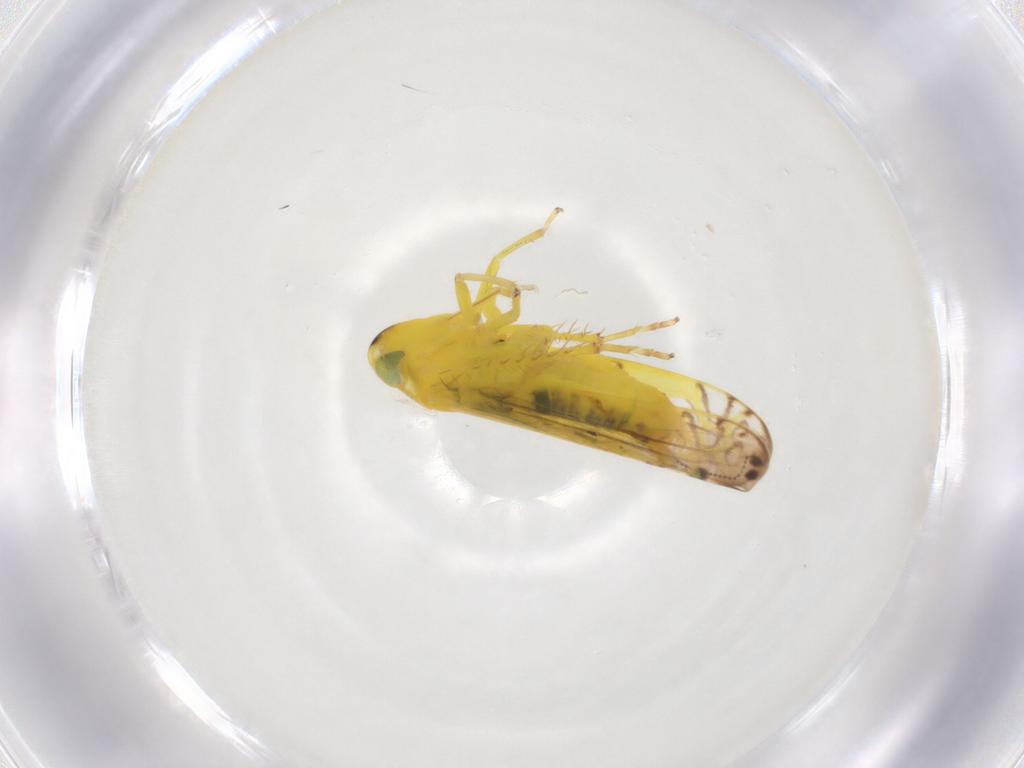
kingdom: Animalia
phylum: Arthropoda
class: Insecta
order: Hemiptera
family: Cicadellidae
